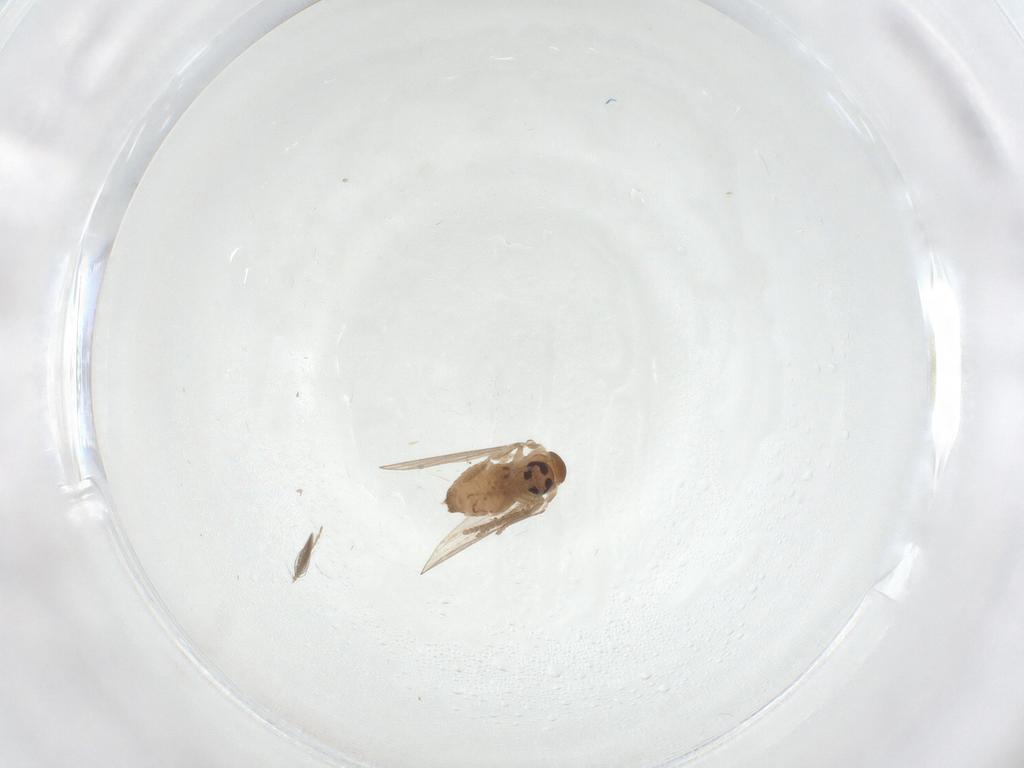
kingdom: Animalia
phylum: Arthropoda
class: Insecta
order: Diptera
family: Psychodidae
